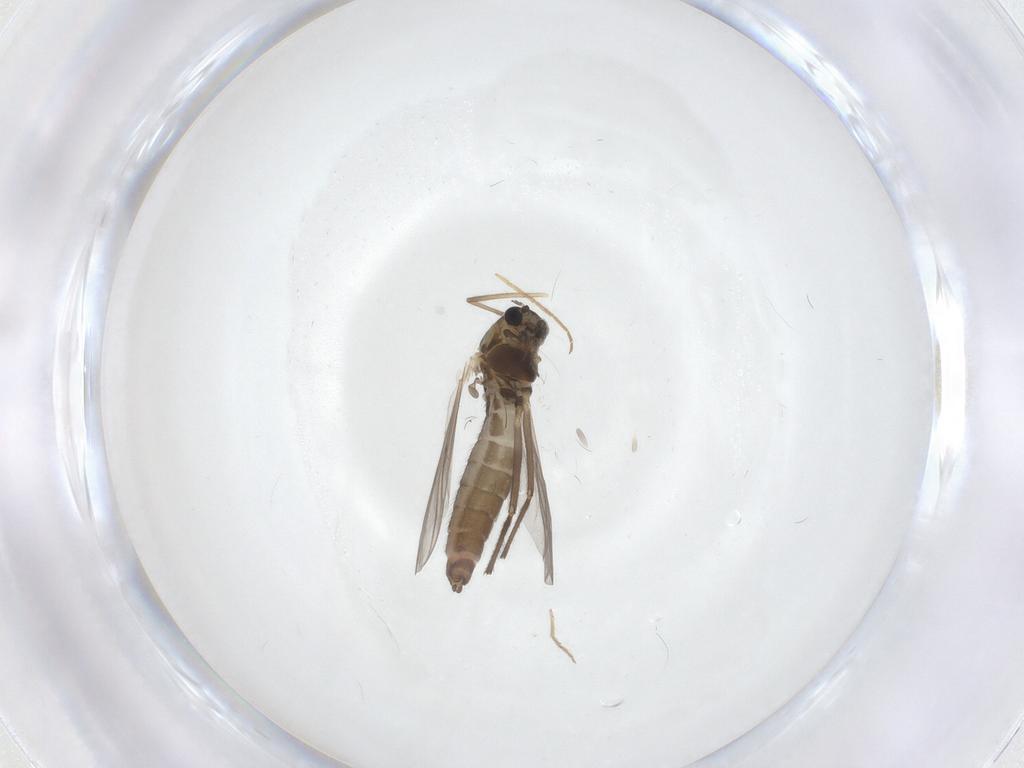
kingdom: Animalia
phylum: Arthropoda
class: Insecta
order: Diptera
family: Chironomidae
